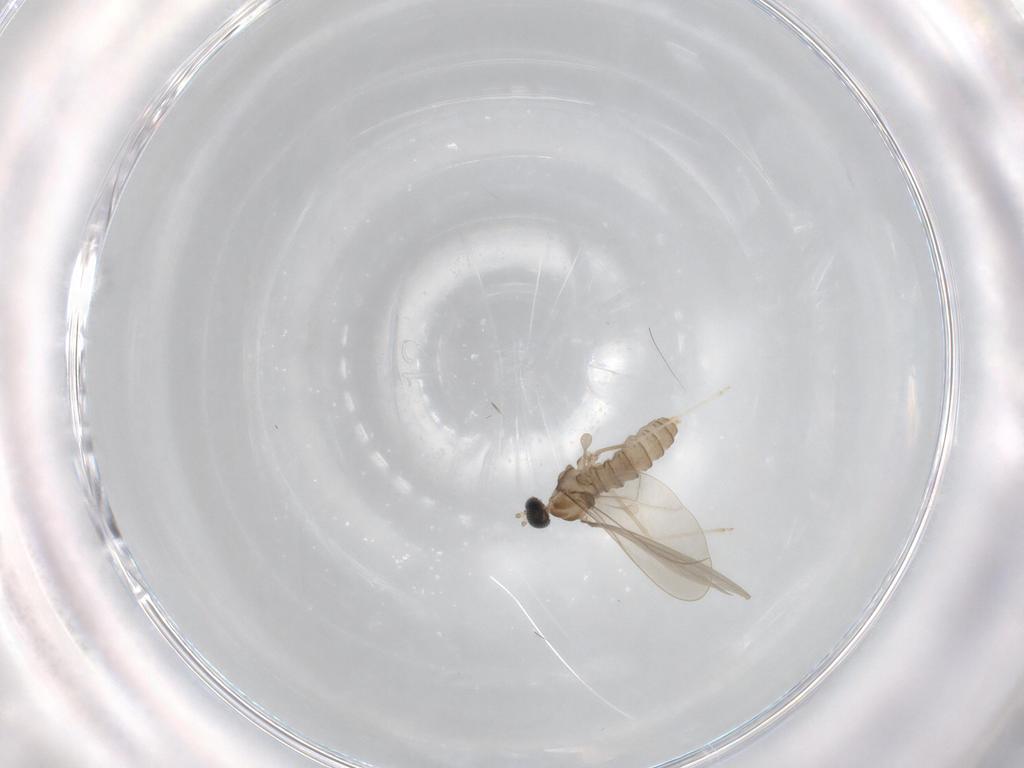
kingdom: Animalia
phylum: Arthropoda
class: Insecta
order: Diptera
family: Cecidomyiidae
